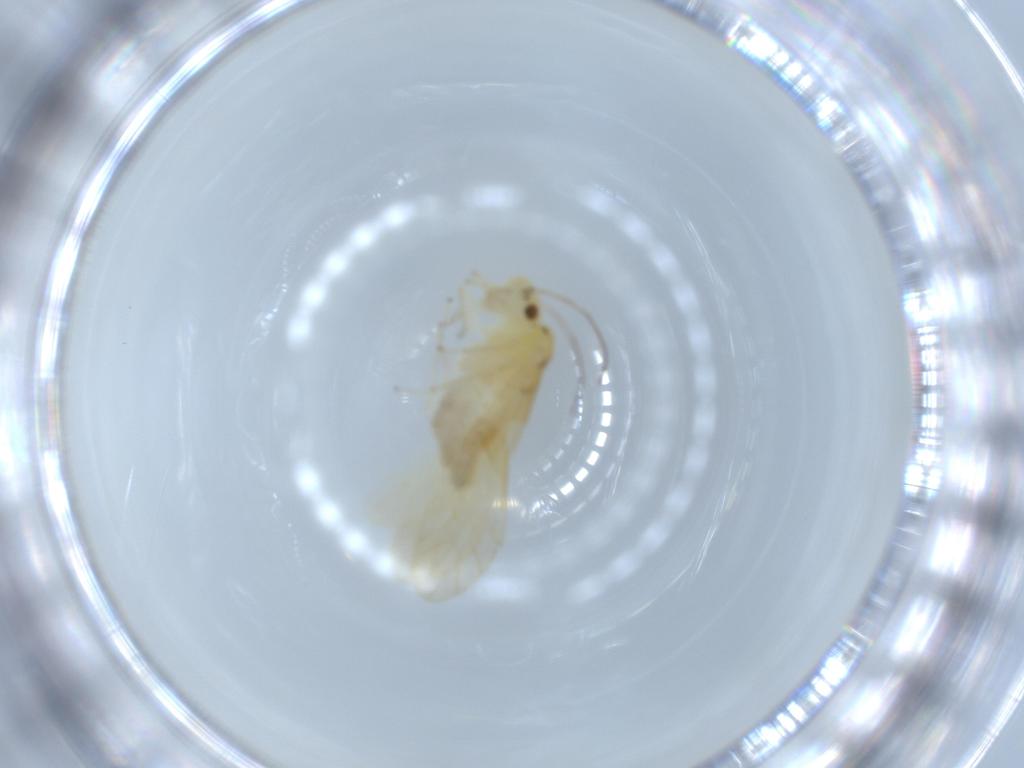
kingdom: Animalia
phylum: Arthropoda
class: Insecta
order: Psocodea
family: Caeciliusidae
